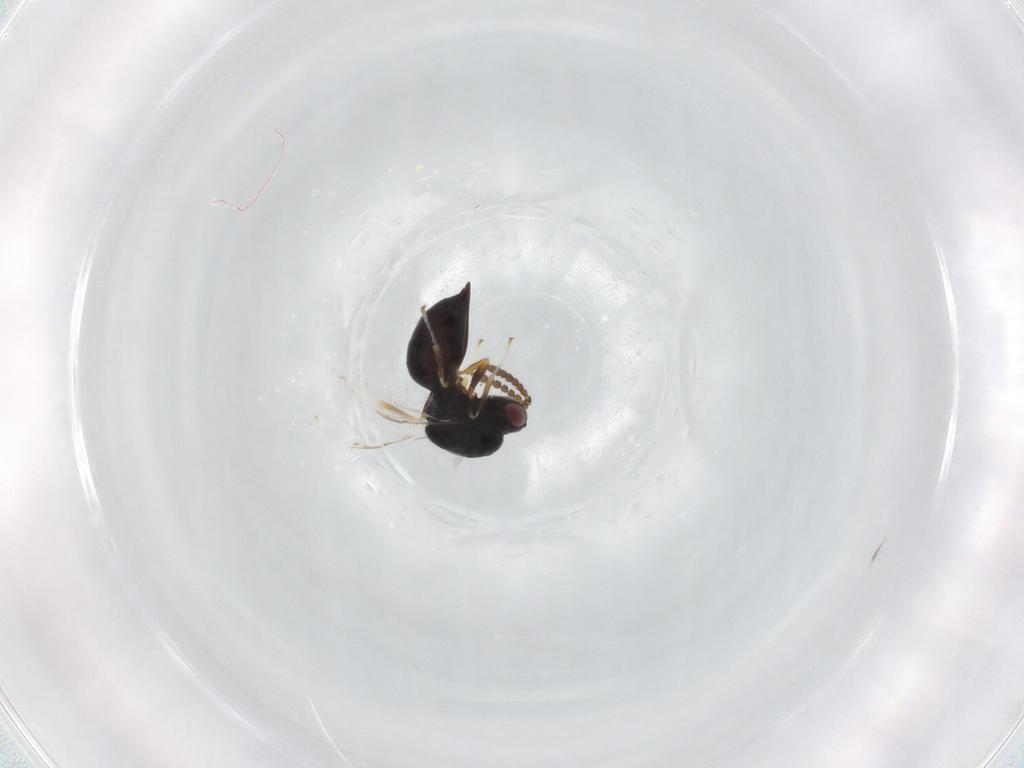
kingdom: Animalia
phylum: Arthropoda
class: Insecta
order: Hymenoptera
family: Eurytomidae
